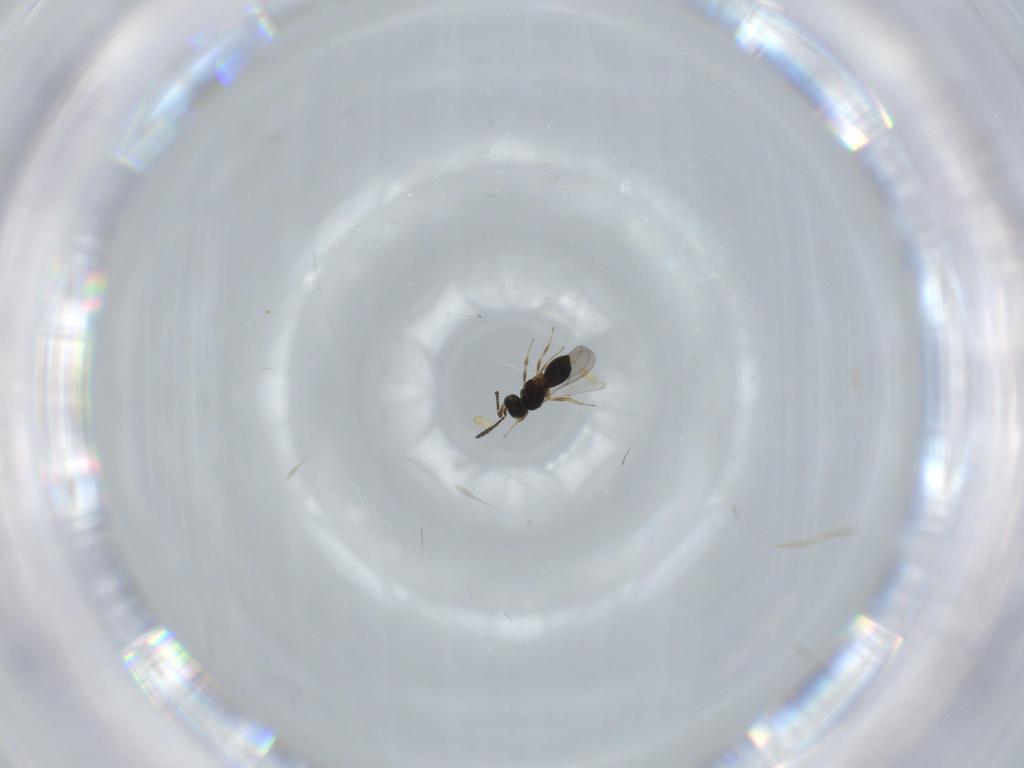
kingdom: Animalia
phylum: Arthropoda
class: Insecta
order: Hymenoptera
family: Scelionidae
